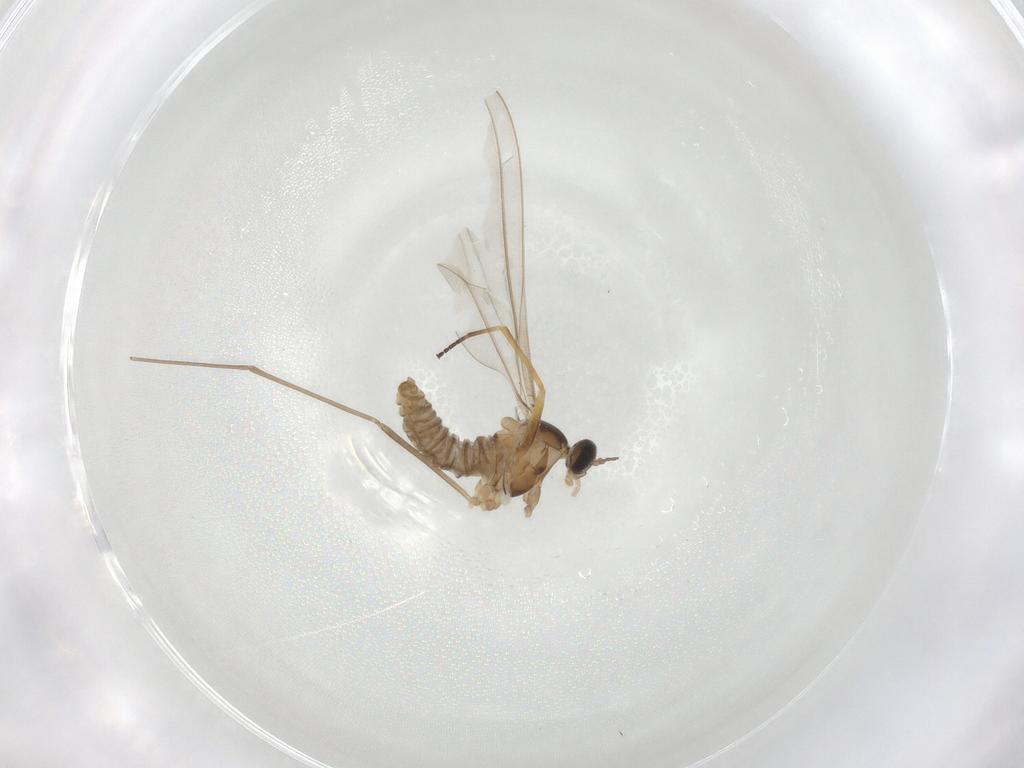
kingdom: Animalia
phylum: Arthropoda
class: Insecta
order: Diptera
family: Cecidomyiidae
